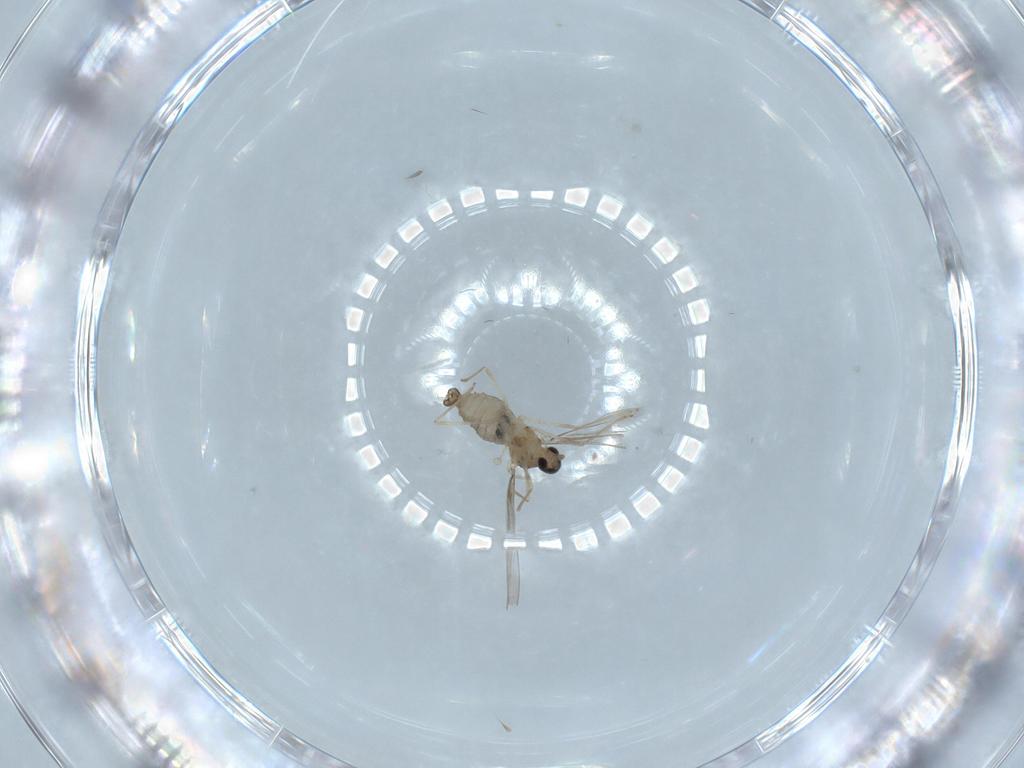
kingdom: Animalia
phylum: Arthropoda
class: Insecta
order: Diptera
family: Cecidomyiidae
